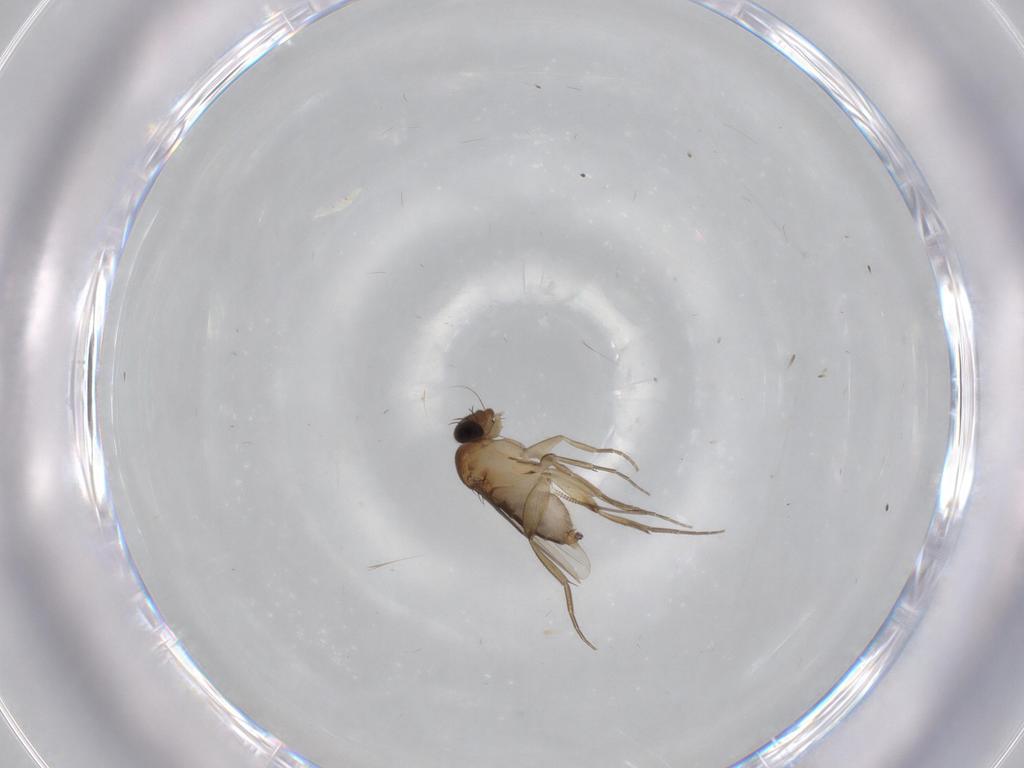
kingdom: Animalia
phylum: Arthropoda
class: Insecta
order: Diptera
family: Phoridae
